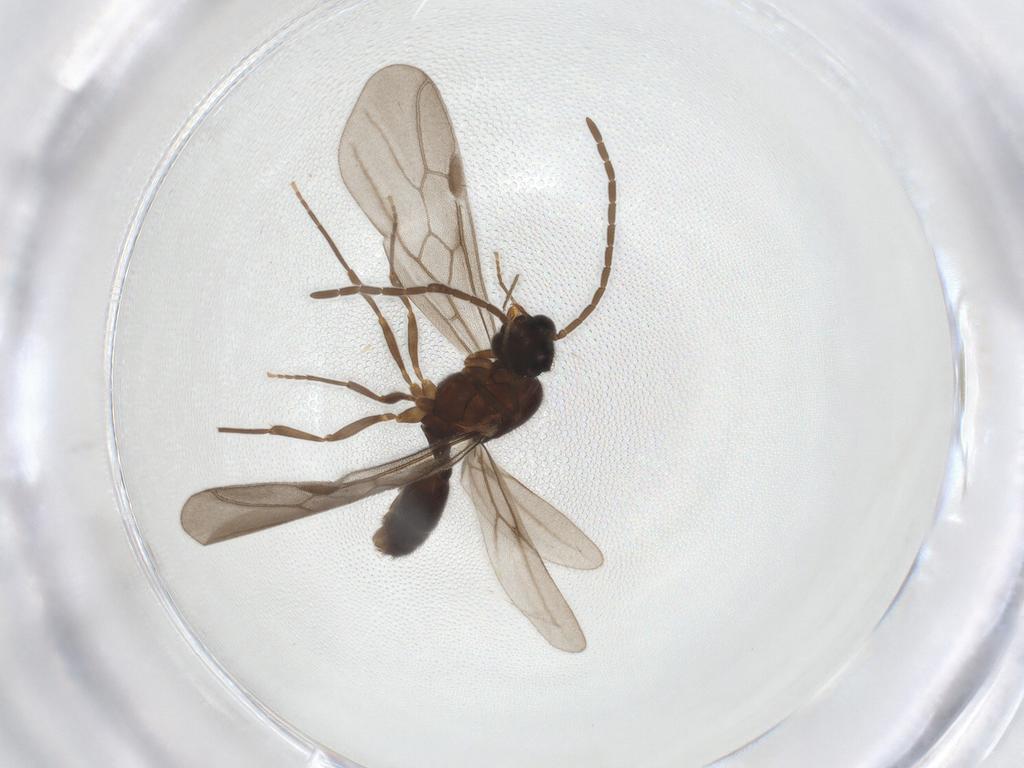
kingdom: Animalia
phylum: Arthropoda
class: Insecta
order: Hymenoptera
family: Formicidae
